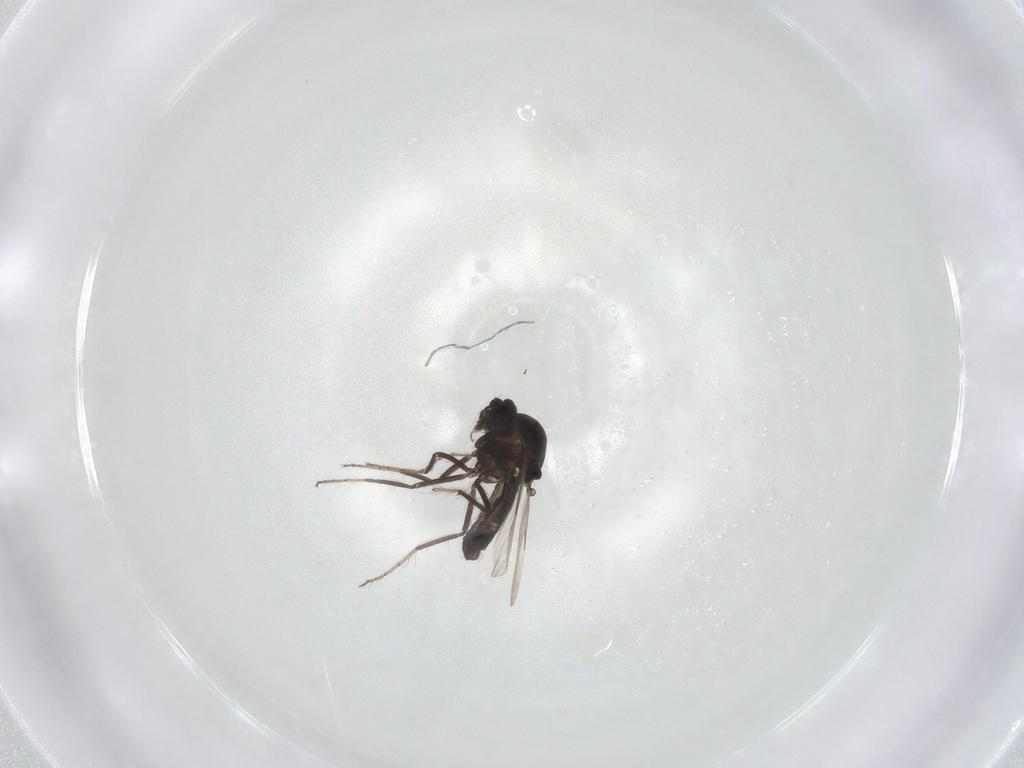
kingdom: Animalia
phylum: Arthropoda
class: Insecta
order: Diptera
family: Ceratopogonidae
